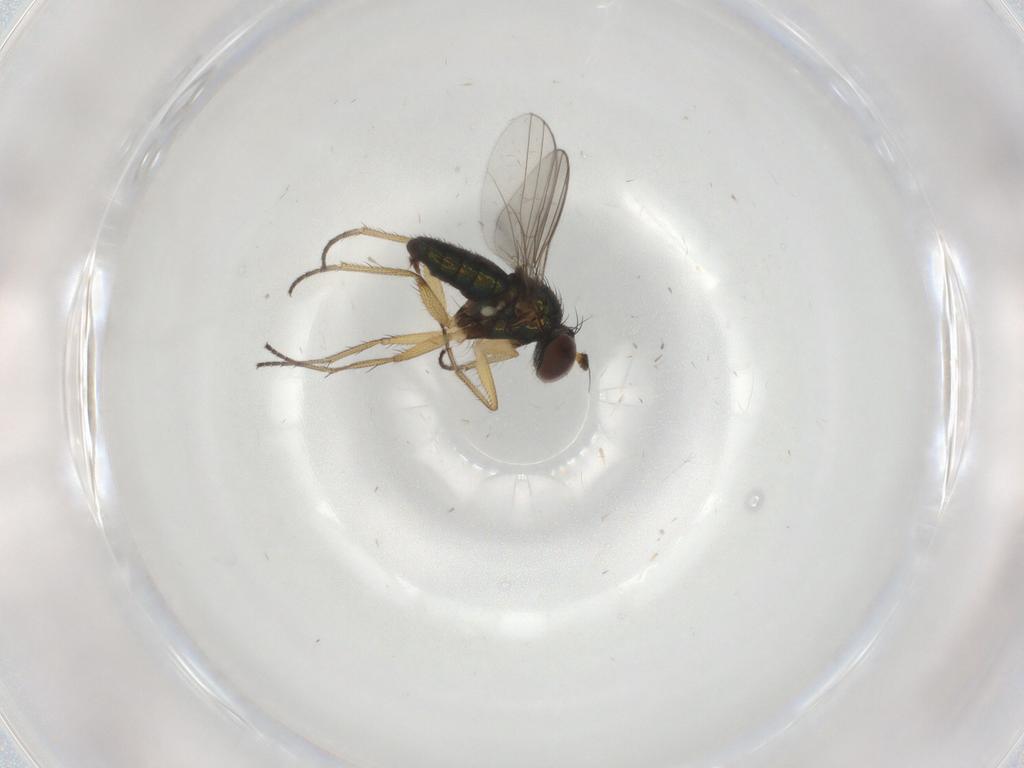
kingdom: Animalia
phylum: Arthropoda
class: Insecta
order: Diptera
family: Dolichopodidae
